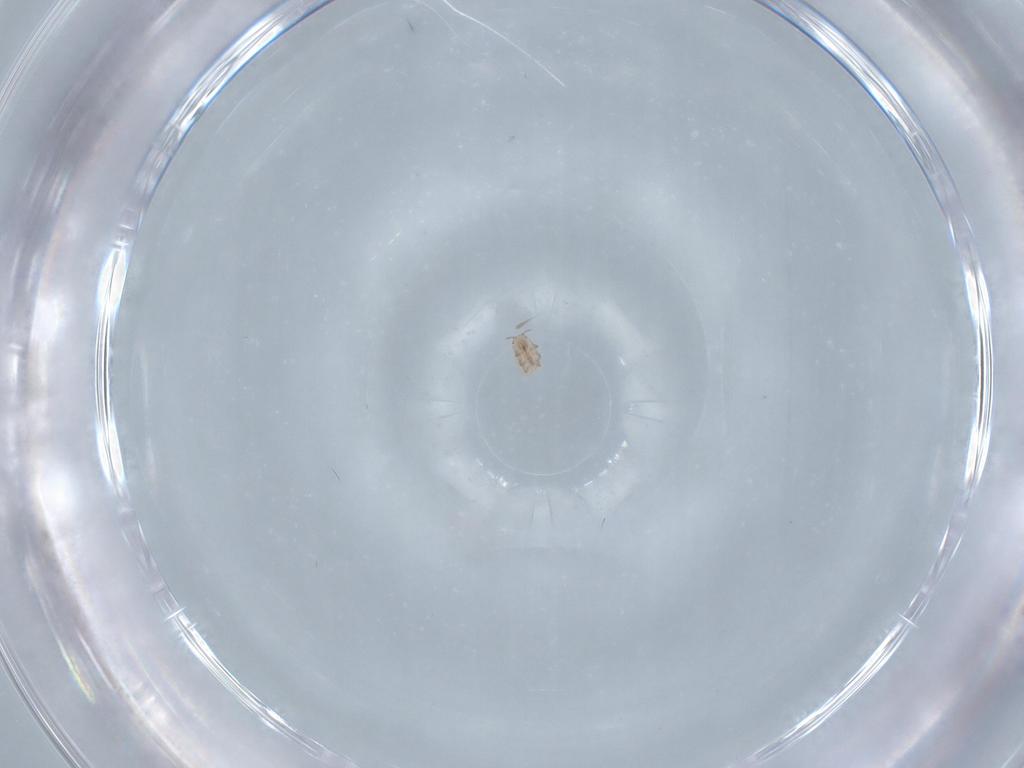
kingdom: Animalia
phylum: Arthropoda
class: Insecta
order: Hemiptera
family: Adelgidae
